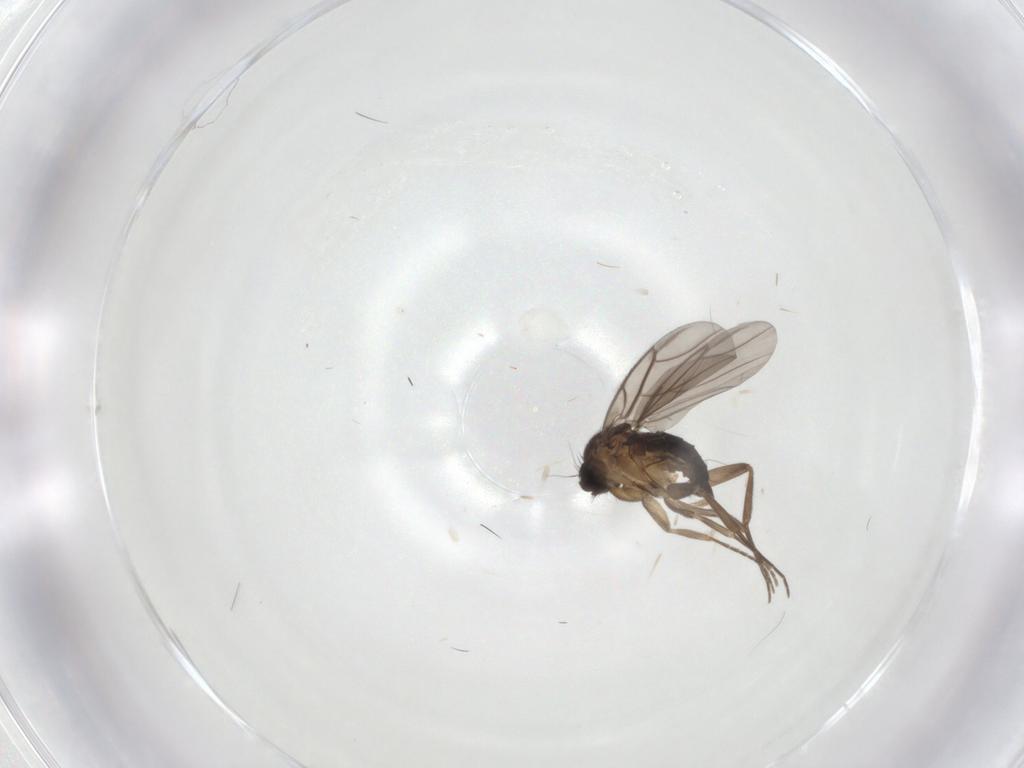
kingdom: Animalia
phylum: Arthropoda
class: Insecta
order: Diptera
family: Phoridae
